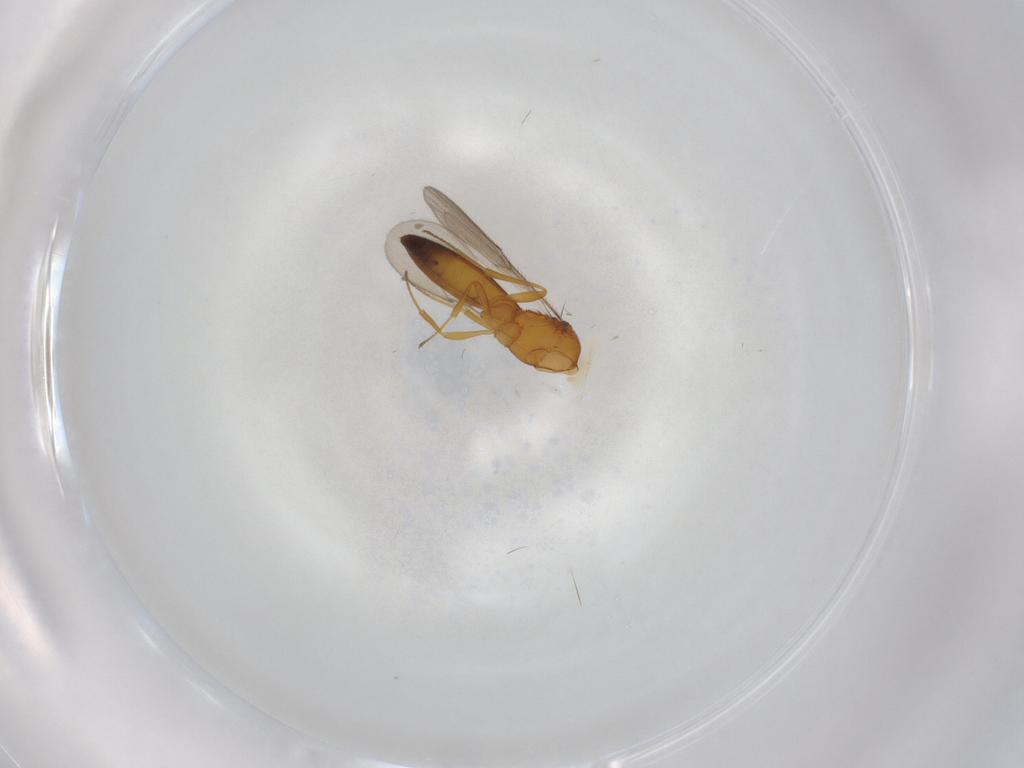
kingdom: Animalia
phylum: Arthropoda
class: Insecta
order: Hymenoptera
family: Scelionidae
